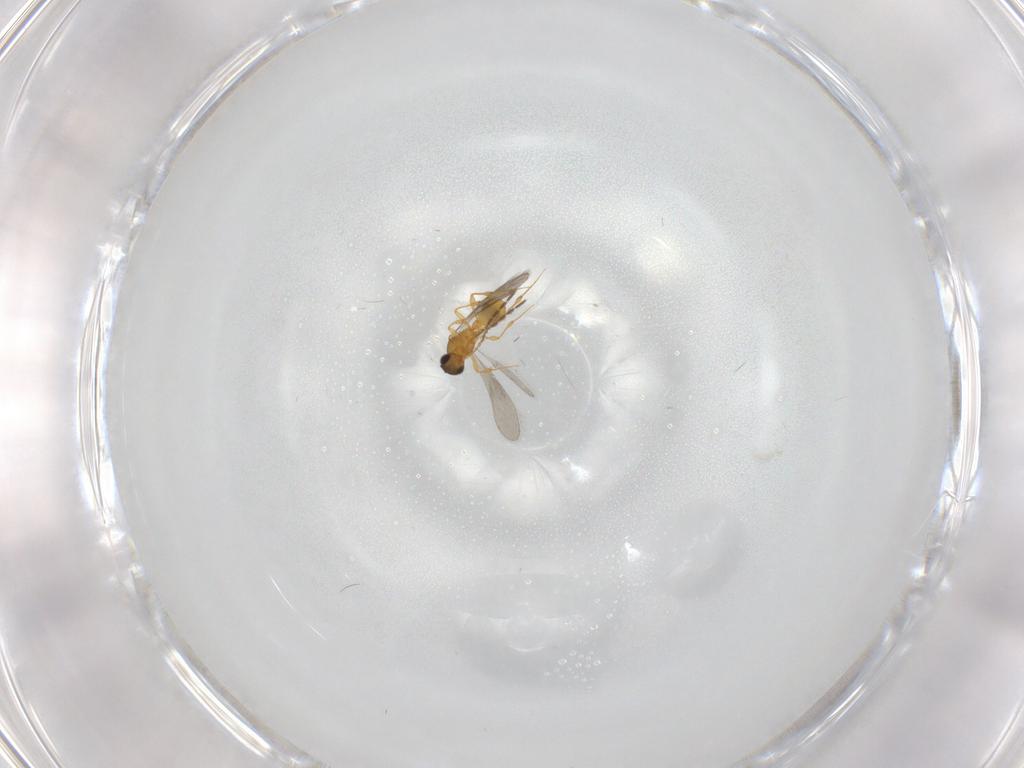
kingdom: Animalia
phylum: Arthropoda
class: Insecta
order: Hymenoptera
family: Platygastridae
